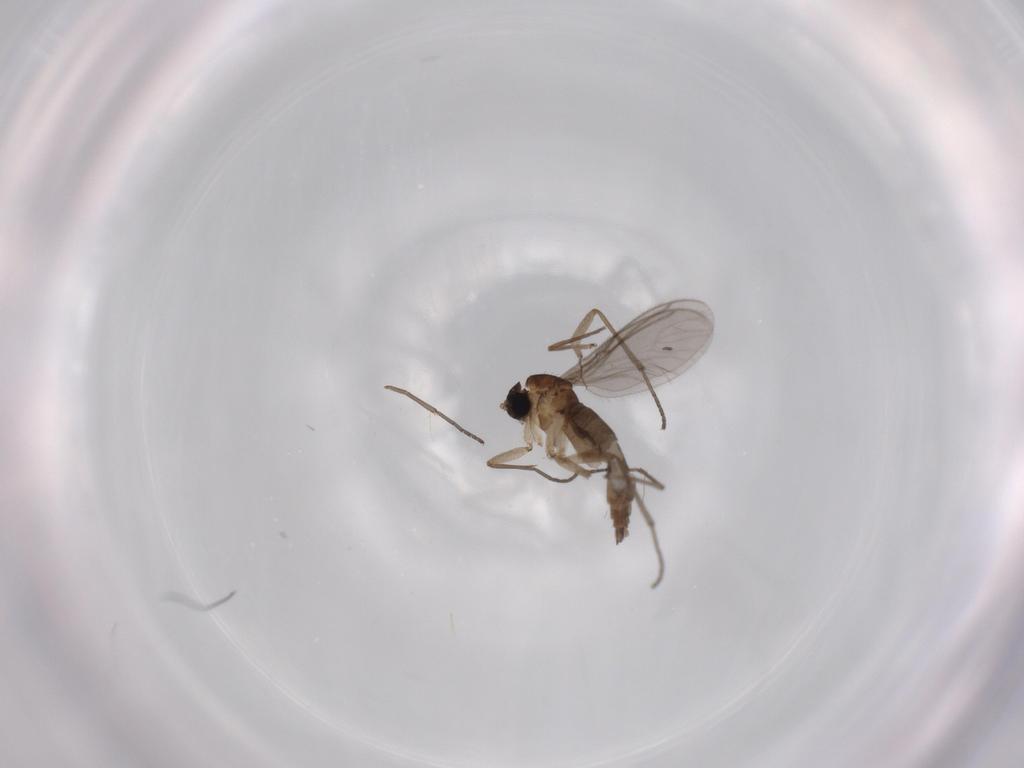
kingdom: Animalia
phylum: Arthropoda
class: Insecta
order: Diptera
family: Sciaridae
